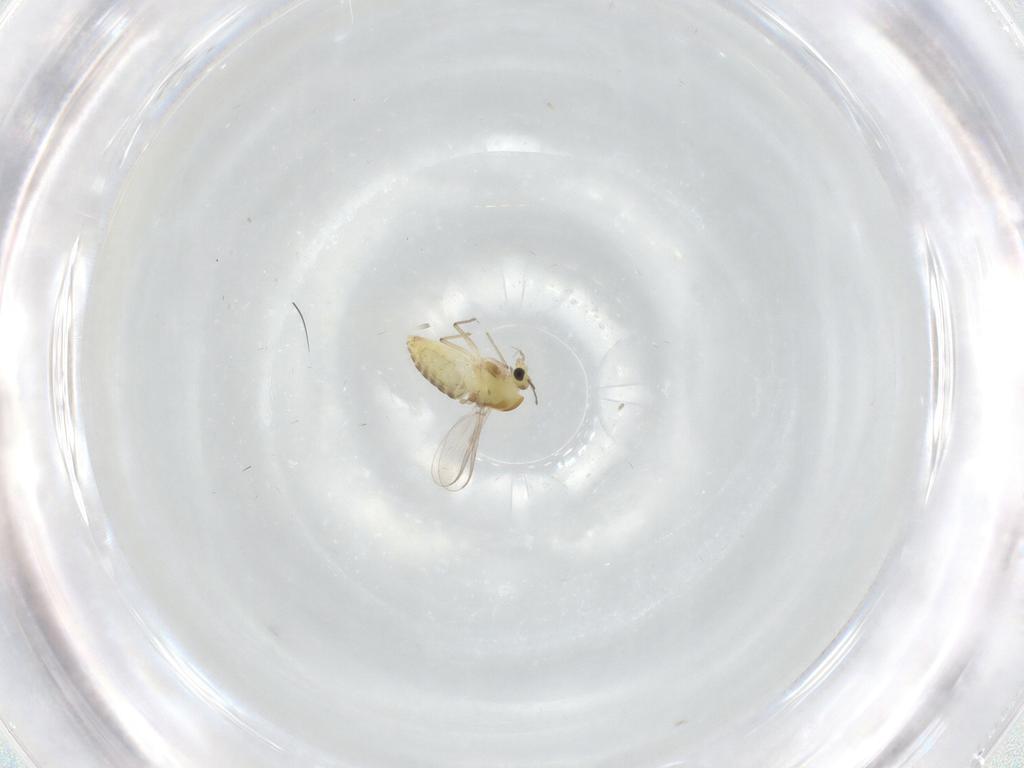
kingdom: Animalia
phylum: Arthropoda
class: Insecta
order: Diptera
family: Chironomidae
